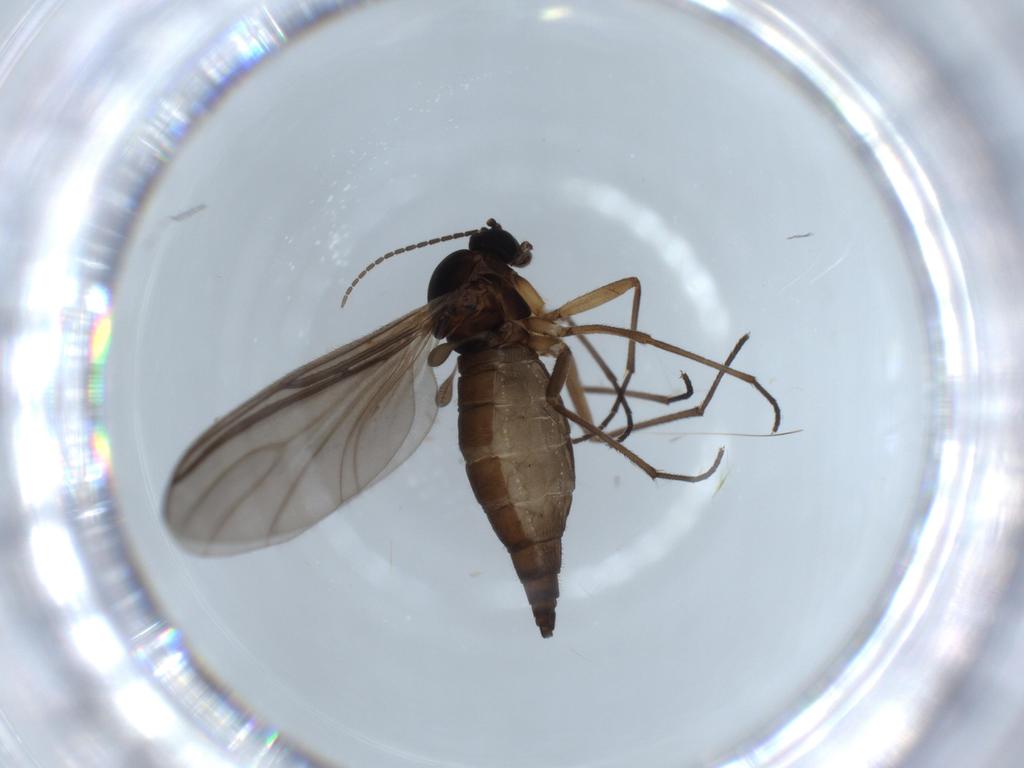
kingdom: Animalia
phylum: Arthropoda
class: Insecta
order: Diptera
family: Sciaridae
